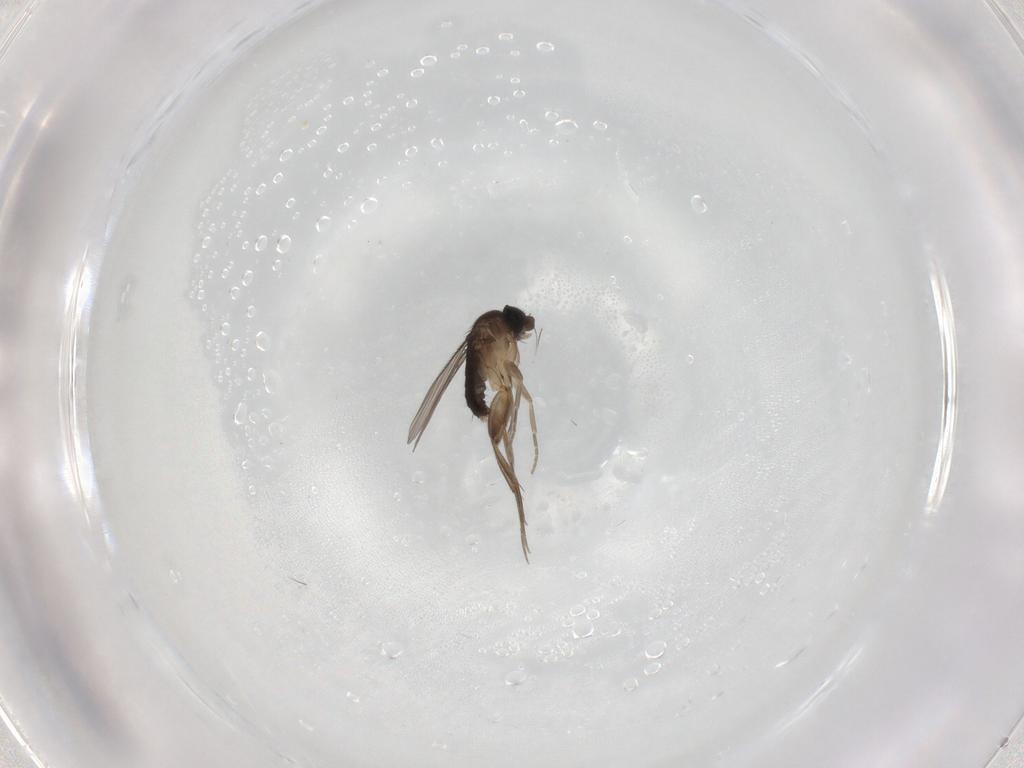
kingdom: Animalia
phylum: Arthropoda
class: Insecta
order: Diptera
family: Phoridae
